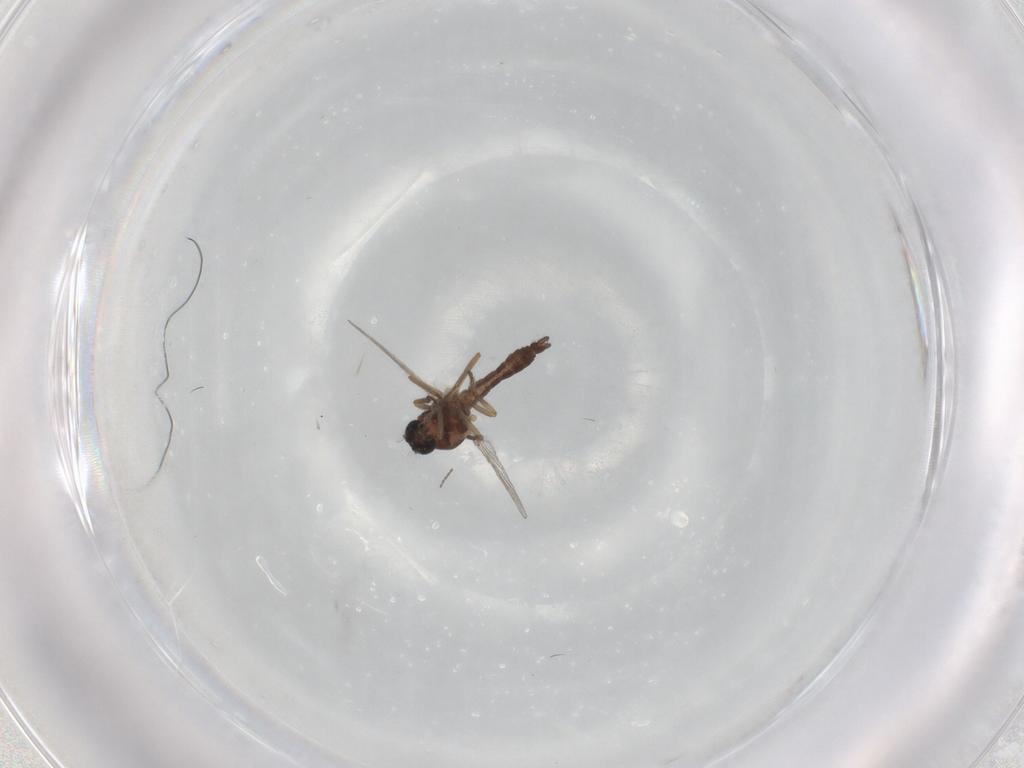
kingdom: Animalia
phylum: Arthropoda
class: Insecta
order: Diptera
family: Cecidomyiidae
